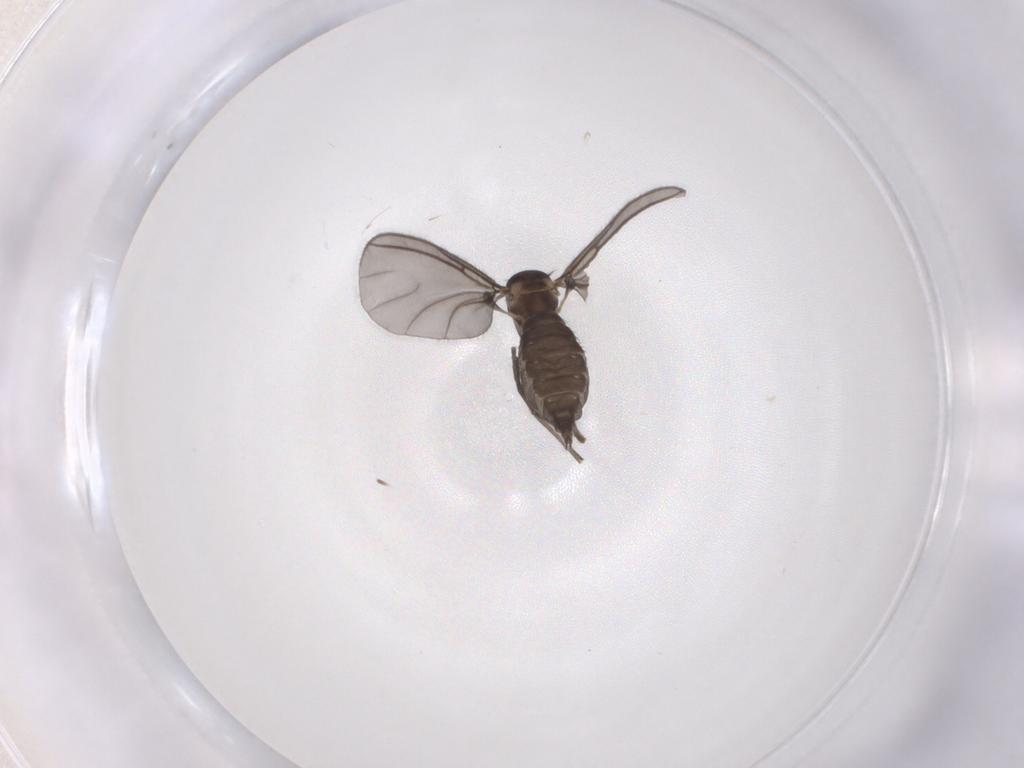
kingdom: Animalia
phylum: Arthropoda
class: Insecta
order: Diptera
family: Sciaridae
